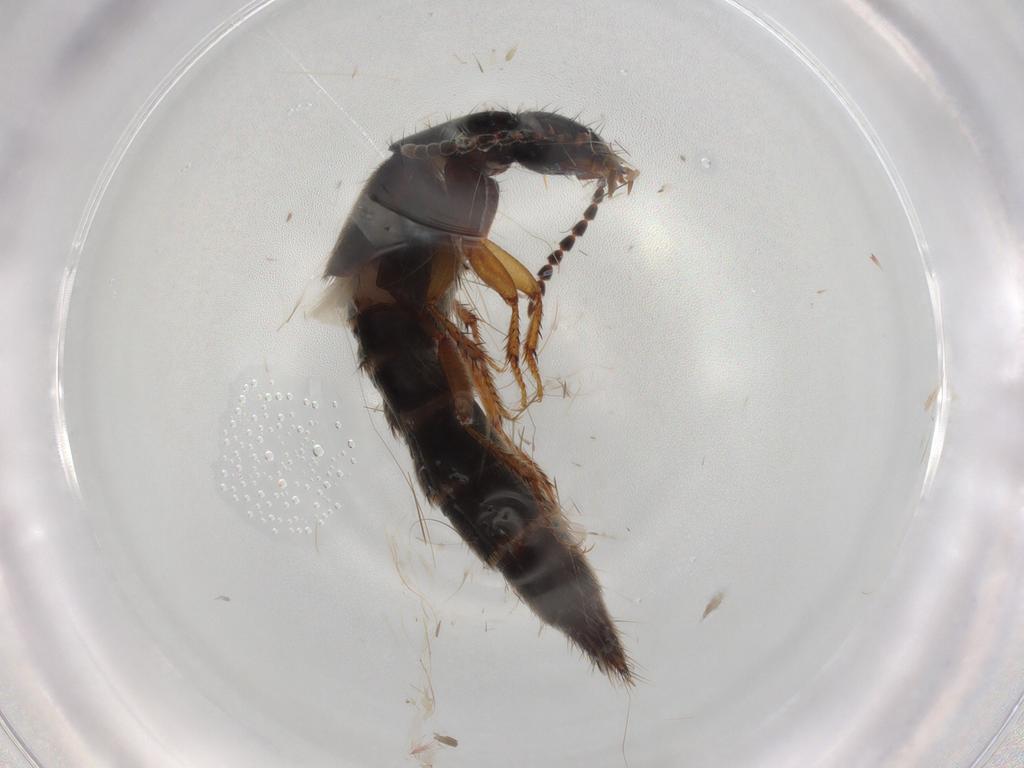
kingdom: Animalia
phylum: Arthropoda
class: Insecta
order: Coleoptera
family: Staphylinidae
